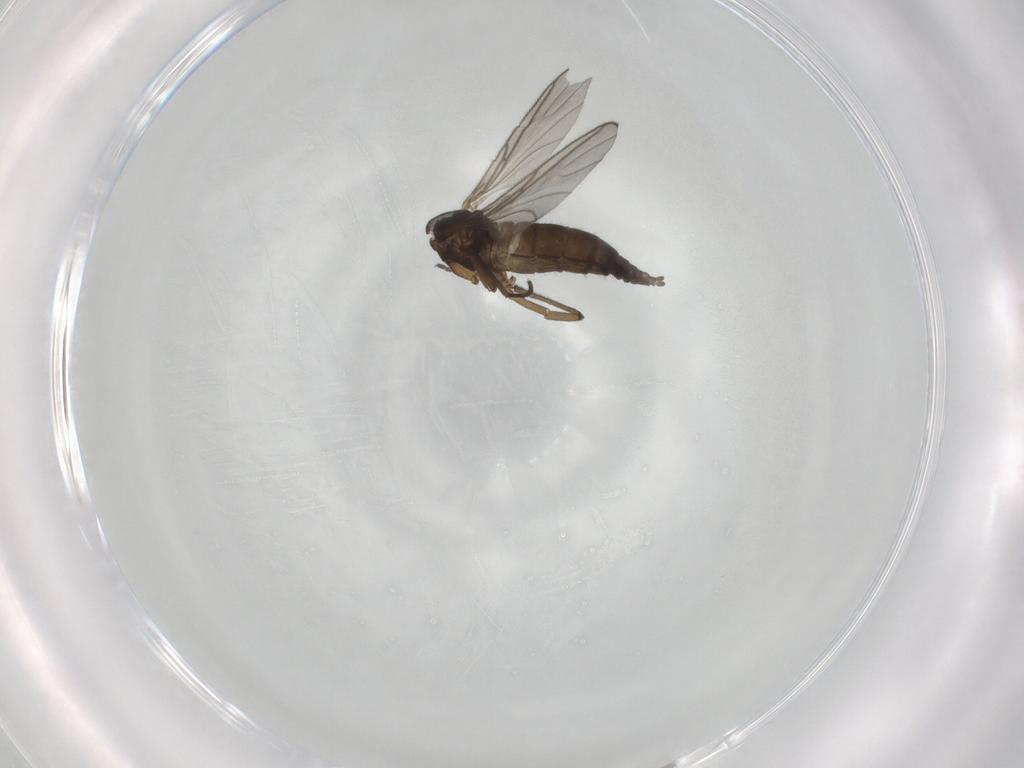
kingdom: Animalia
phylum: Arthropoda
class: Insecta
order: Diptera
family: Sciaridae
